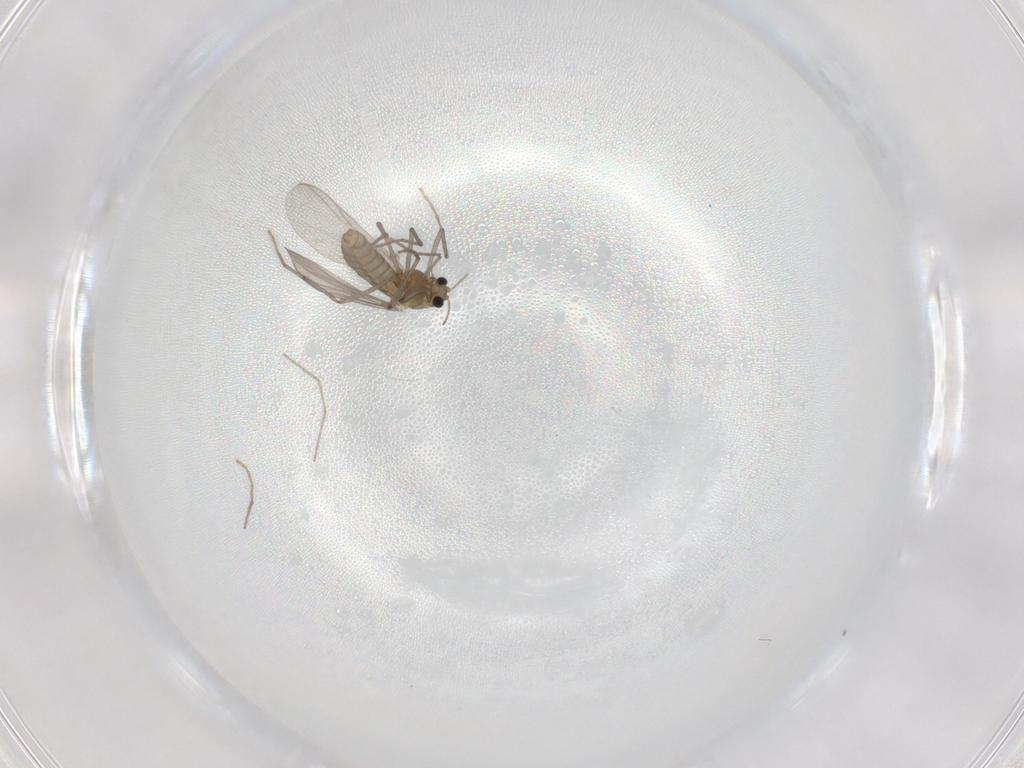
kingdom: Animalia
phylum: Arthropoda
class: Insecta
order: Diptera
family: Chironomidae
